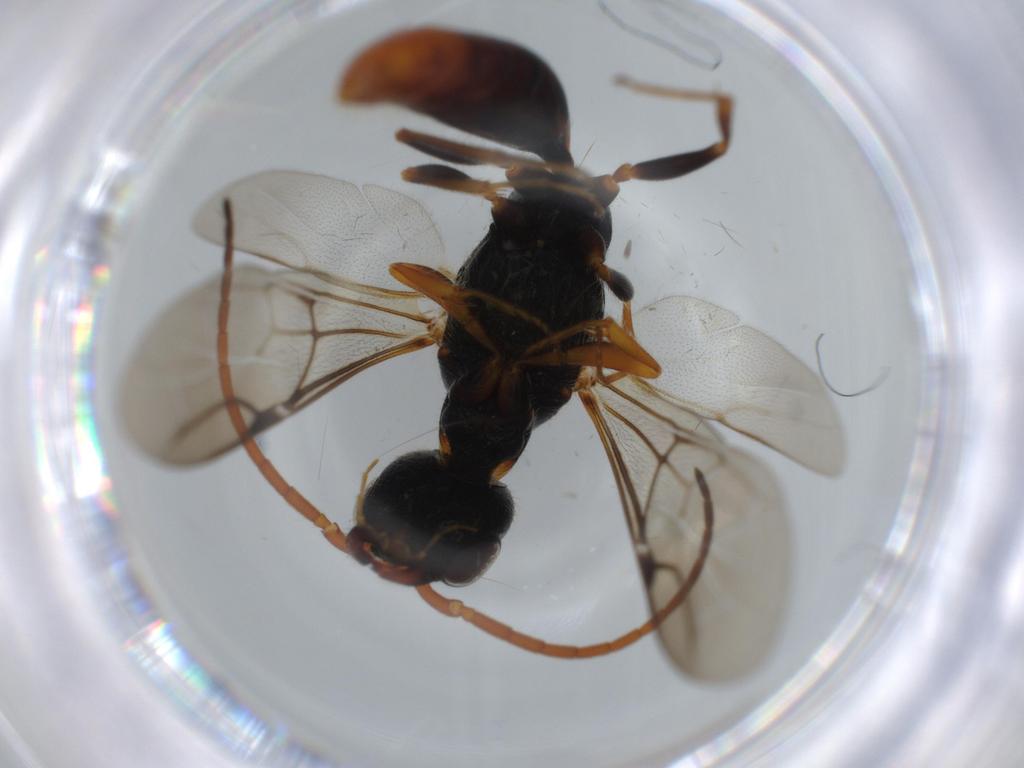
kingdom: Animalia
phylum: Arthropoda
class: Insecta
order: Hymenoptera
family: Bethylidae
